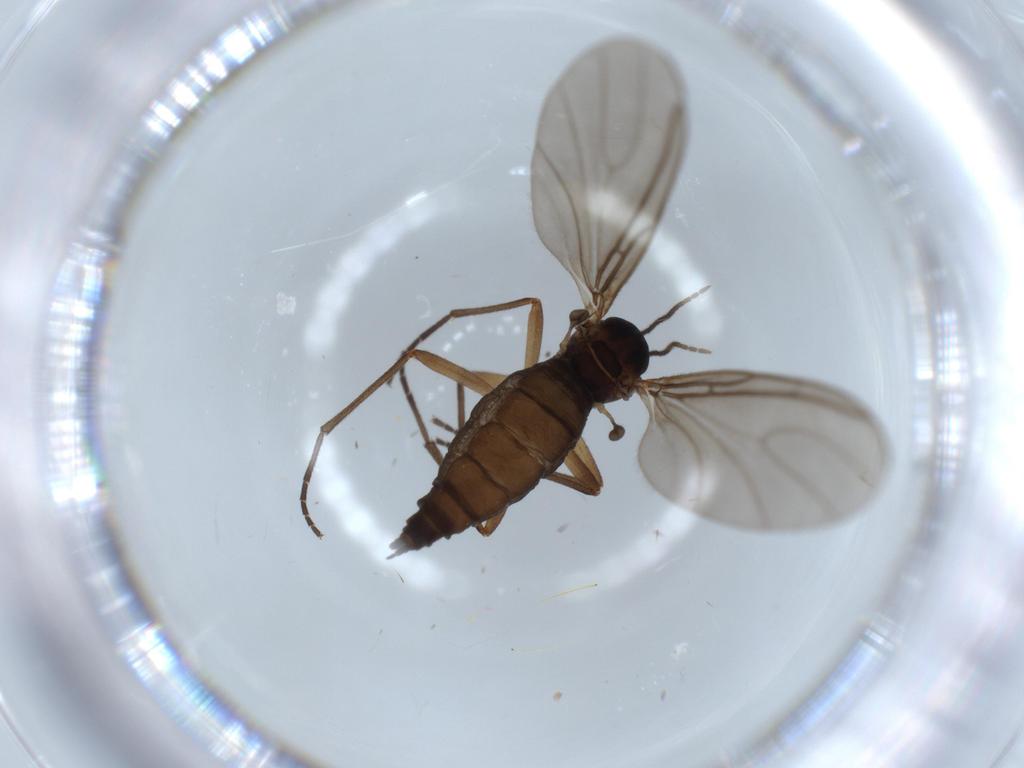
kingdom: Animalia
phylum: Arthropoda
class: Insecta
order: Diptera
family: Sciaridae
